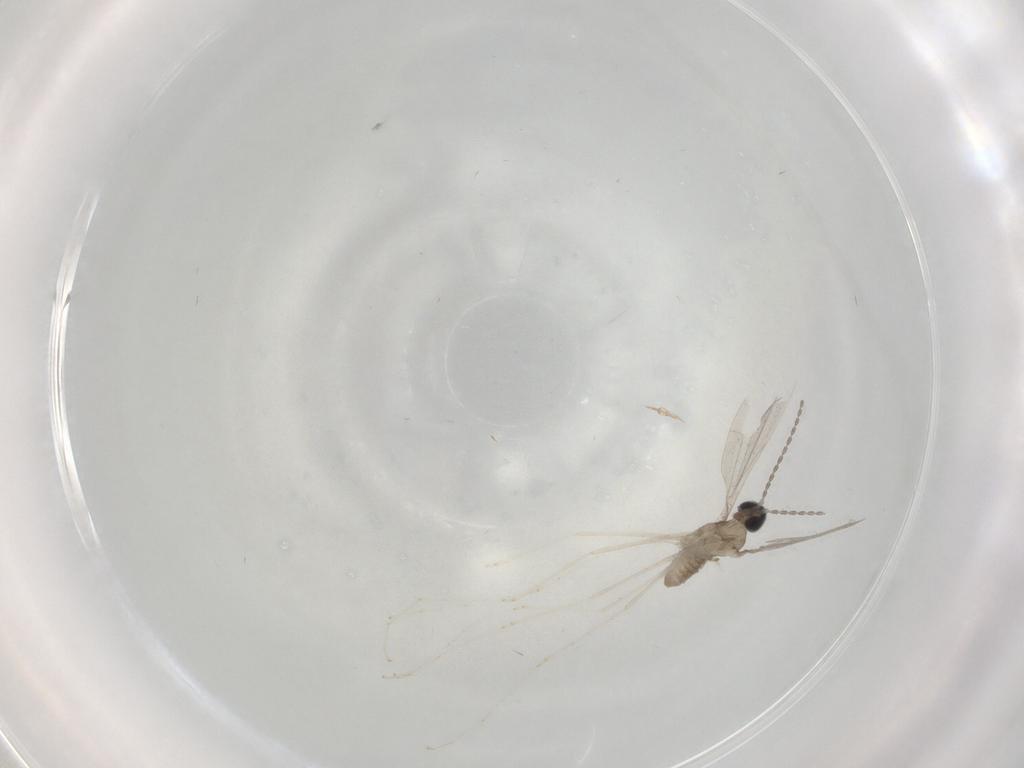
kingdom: Animalia
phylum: Arthropoda
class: Insecta
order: Diptera
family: Cecidomyiidae
